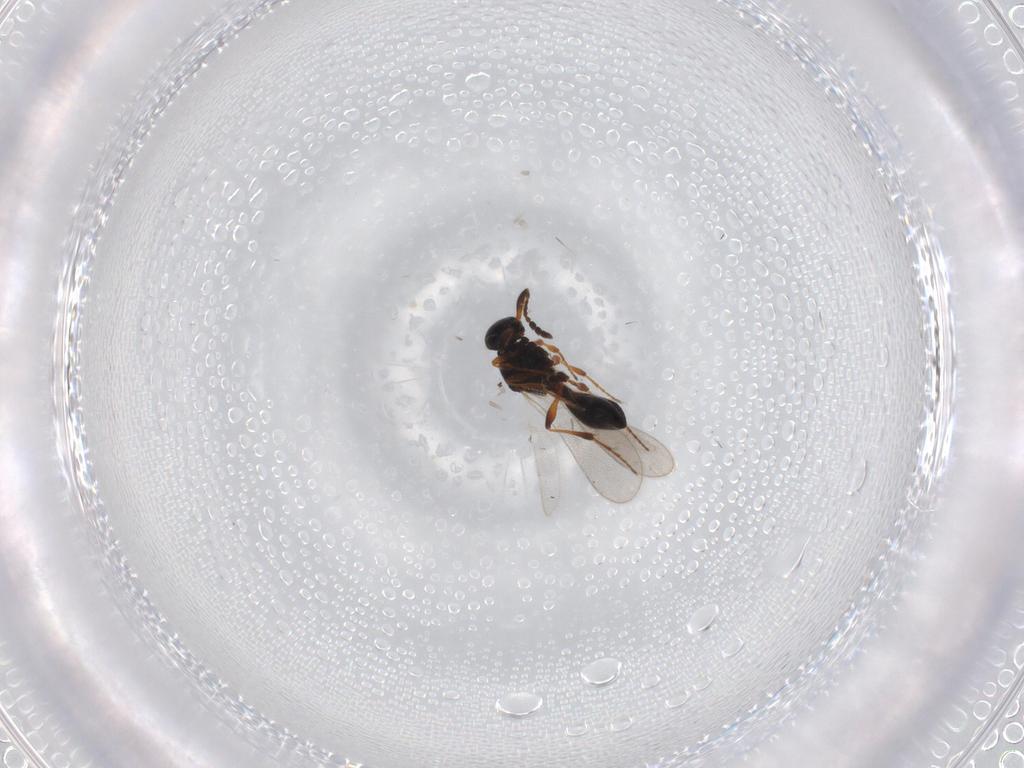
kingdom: Animalia
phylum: Arthropoda
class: Insecta
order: Hymenoptera
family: Platygastridae
